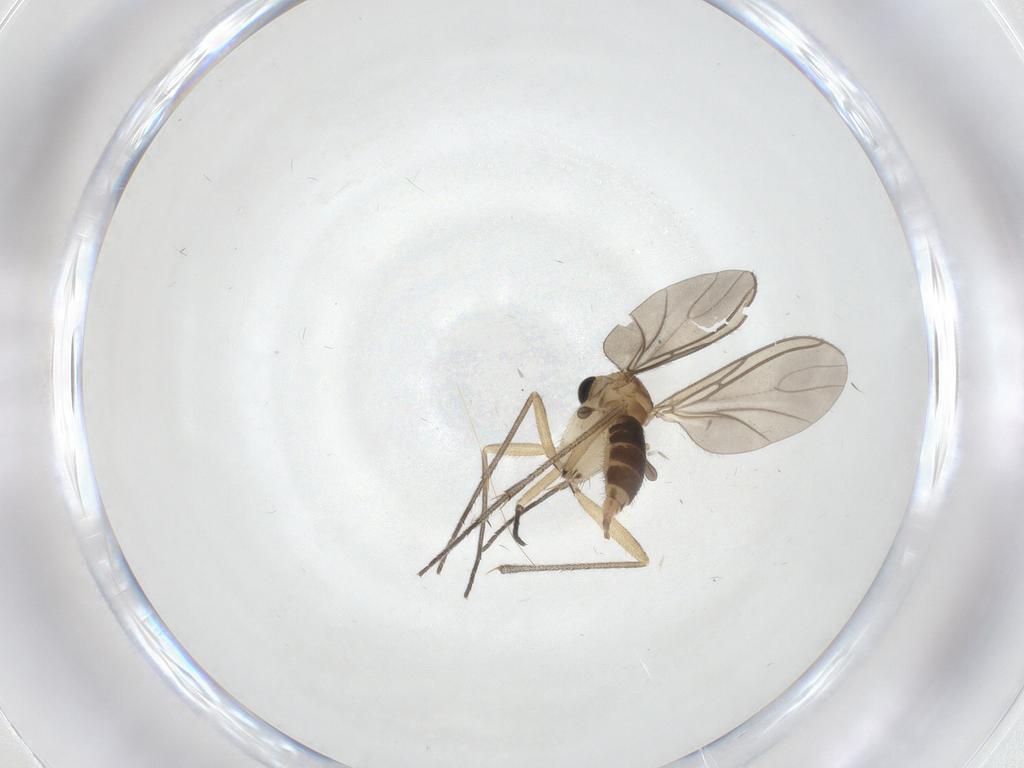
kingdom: Animalia
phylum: Arthropoda
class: Insecta
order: Diptera
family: Sciaridae
